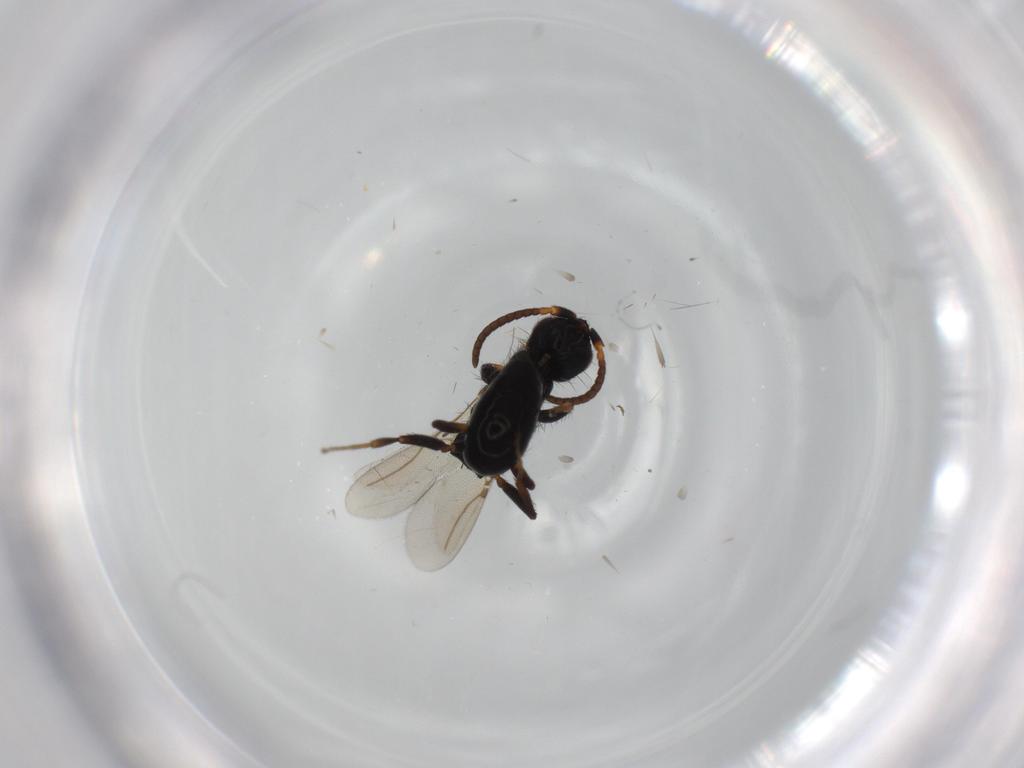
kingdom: Animalia
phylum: Arthropoda
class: Insecta
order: Hymenoptera
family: Bethylidae
